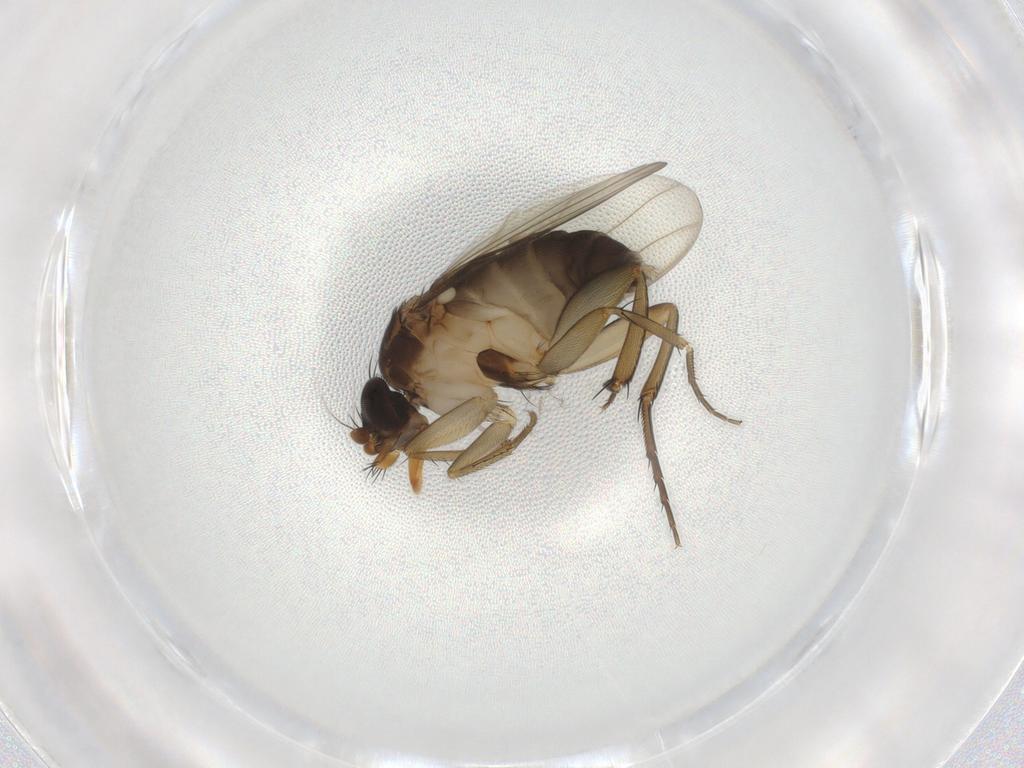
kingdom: Animalia
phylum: Arthropoda
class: Insecta
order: Diptera
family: Phoridae
